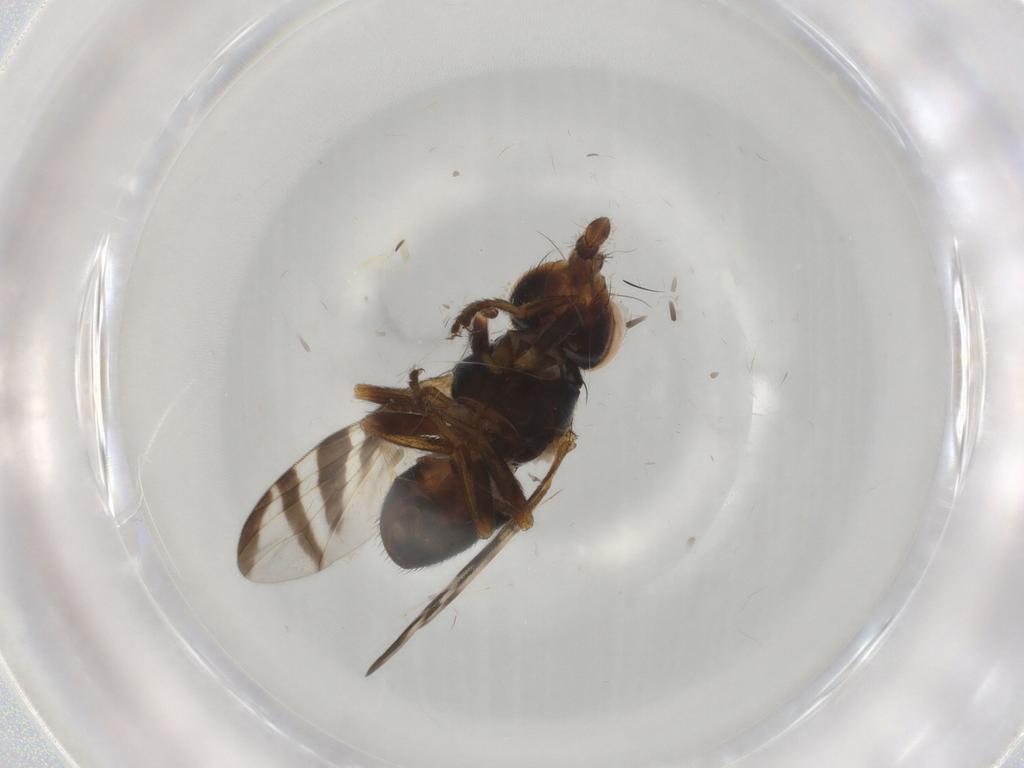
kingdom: Animalia
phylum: Arthropoda
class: Insecta
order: Diptera
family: Platystomatidae
